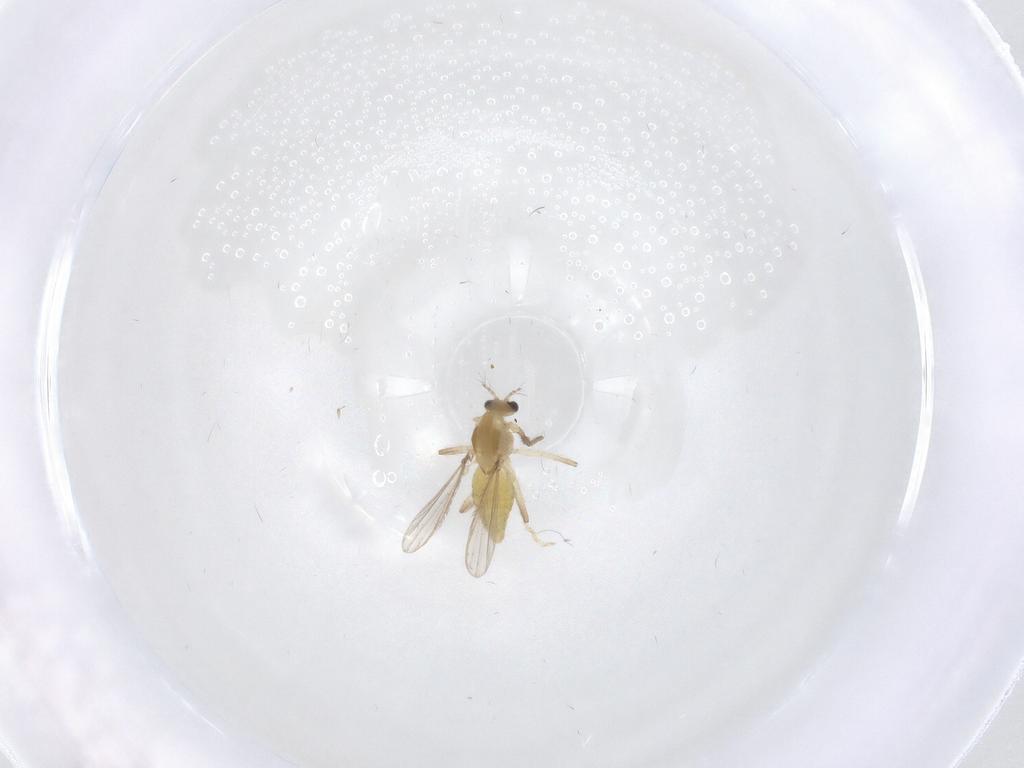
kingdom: Animalia
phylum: Arthropoda
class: Insecta
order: Diptera
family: Chironomidae
